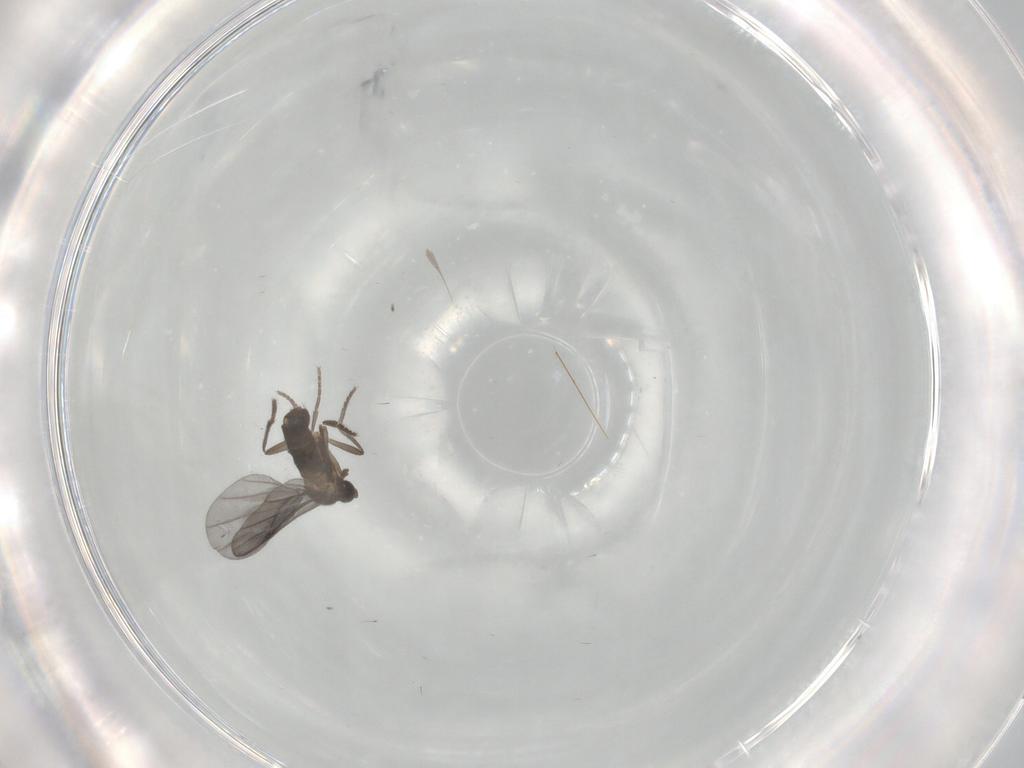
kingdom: Animalia
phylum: Arthropoda
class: Insecta
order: Diptera
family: Phoridae
